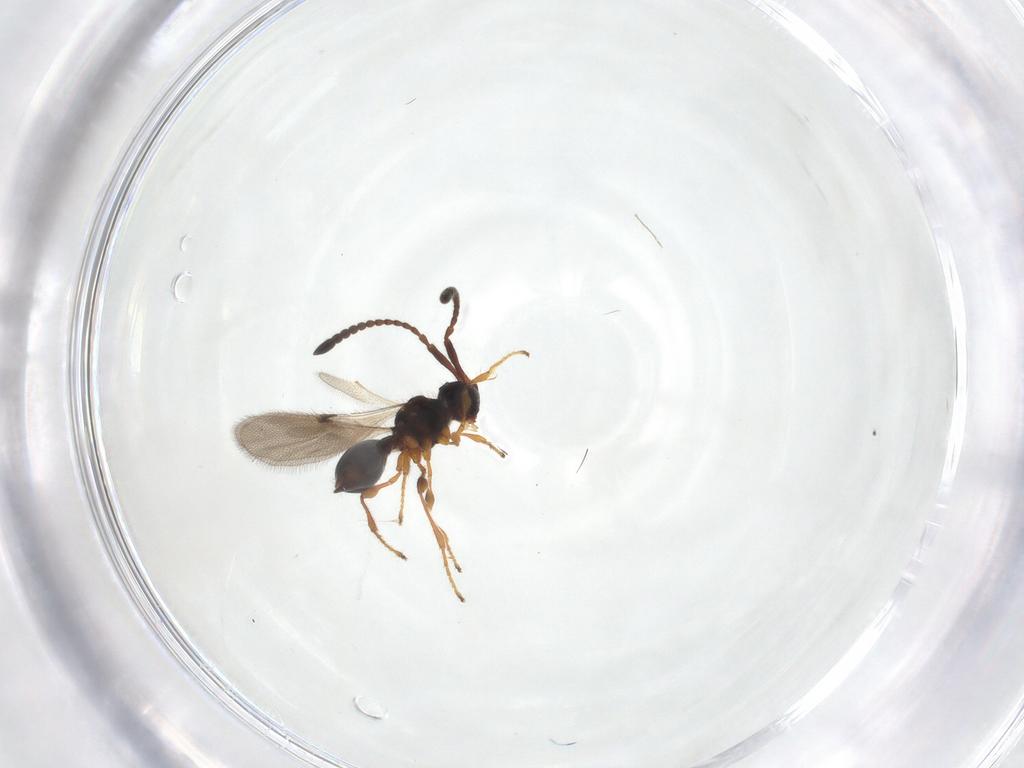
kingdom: Animalia
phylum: Arthropoda
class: Insecta
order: Hymenoptera
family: Diapriidae
